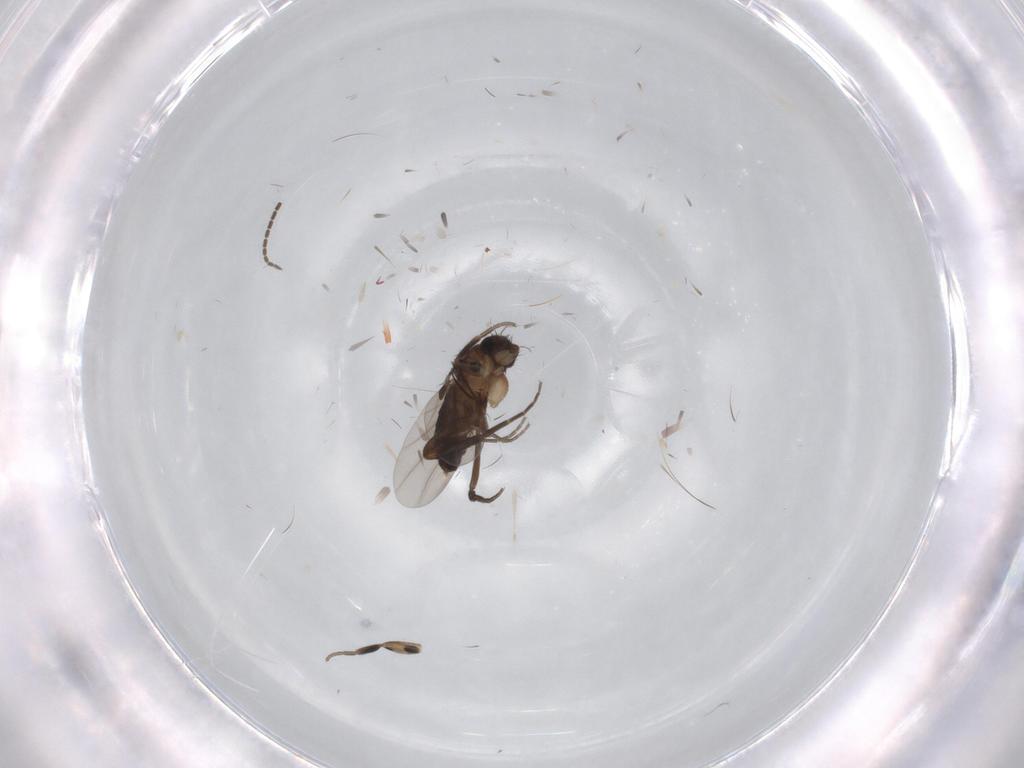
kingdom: Animalia
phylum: Arthropoda
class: Insecta
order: Diptera
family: Phoridae
